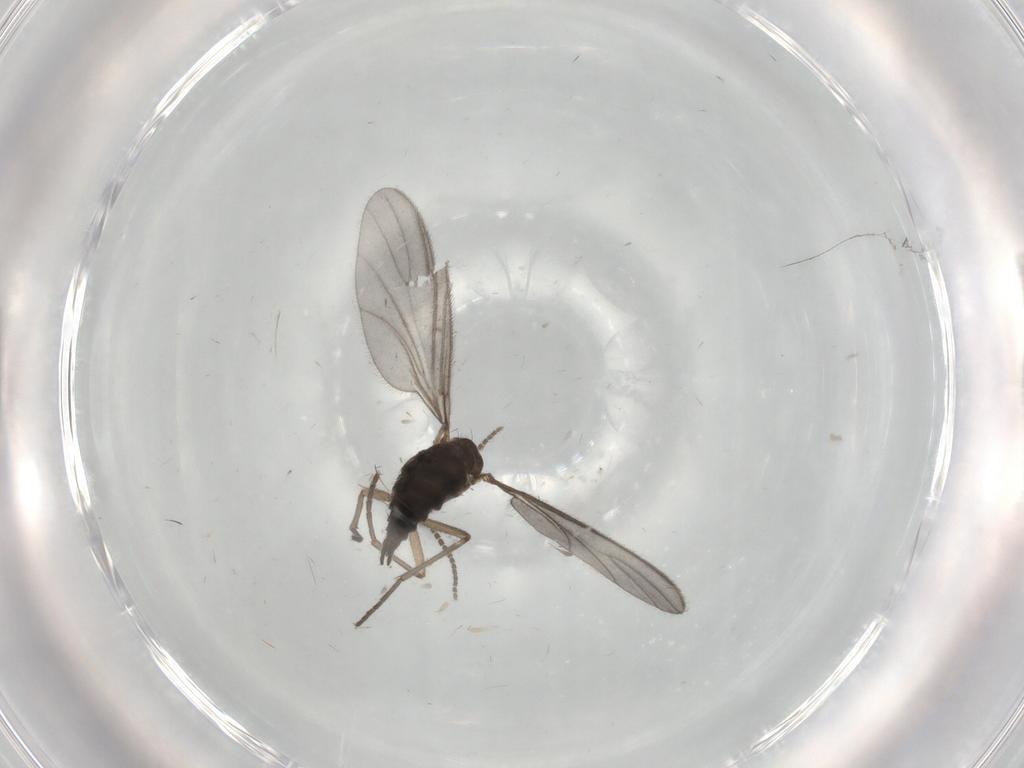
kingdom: Animalia
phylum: Arthropoda
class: Insecta
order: Diptera
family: Sciaridae
